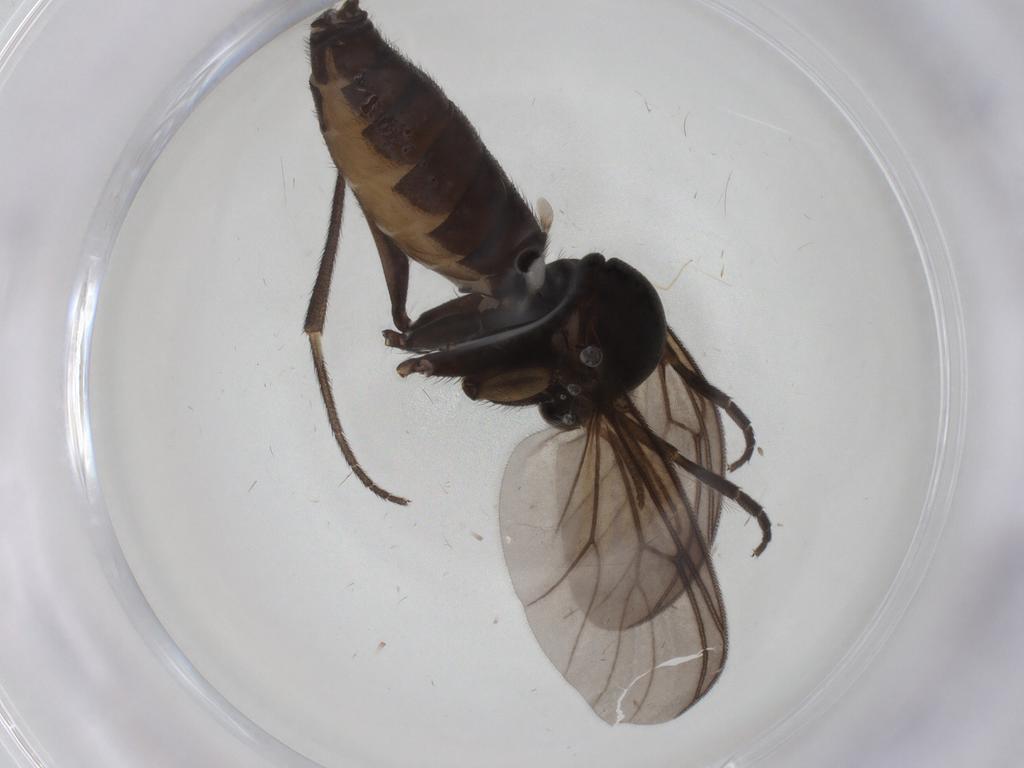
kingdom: Animalia
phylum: Arthropoda
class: Insecta
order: Diptera
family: Mycetophilidae
